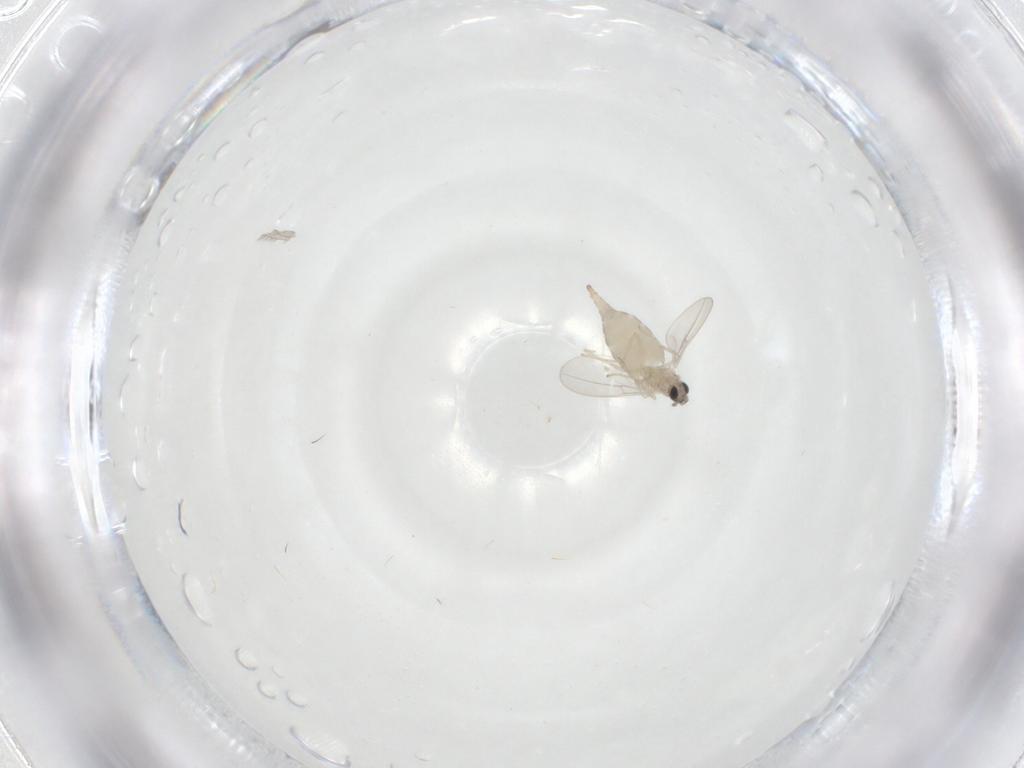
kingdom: Animalia
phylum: Arthropoda
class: Insecta
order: Diptera
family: Cecidomyiidae
